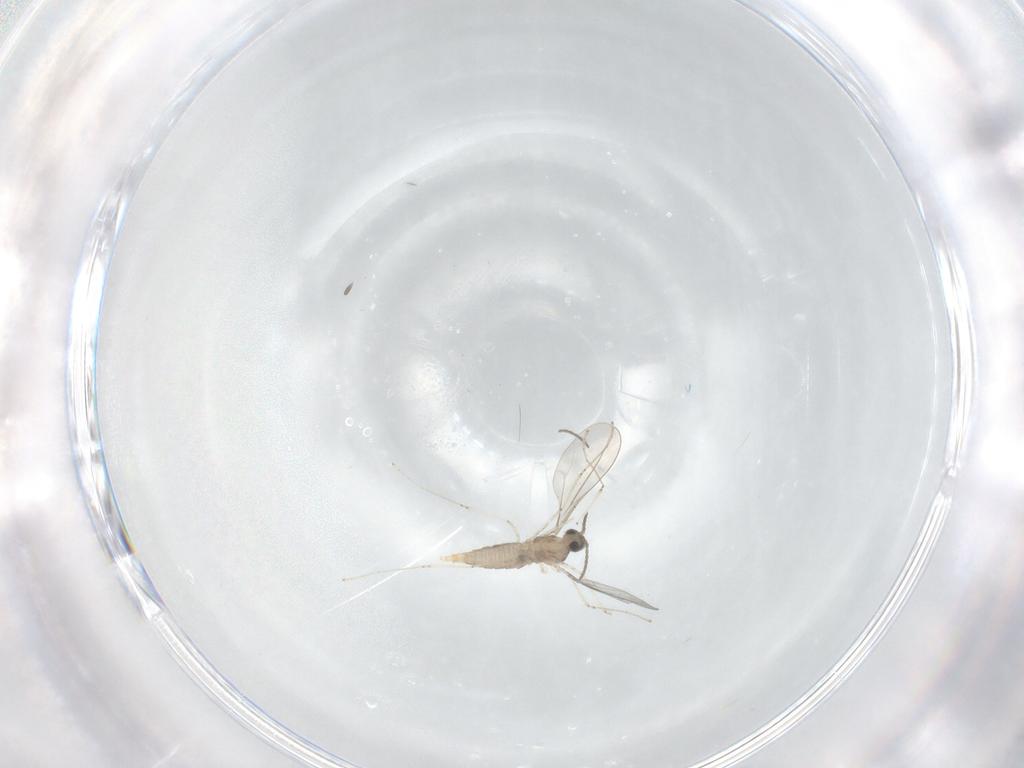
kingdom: Animalia
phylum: Arthropoda
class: Insecta
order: Diptera
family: Cecidomyiidae
